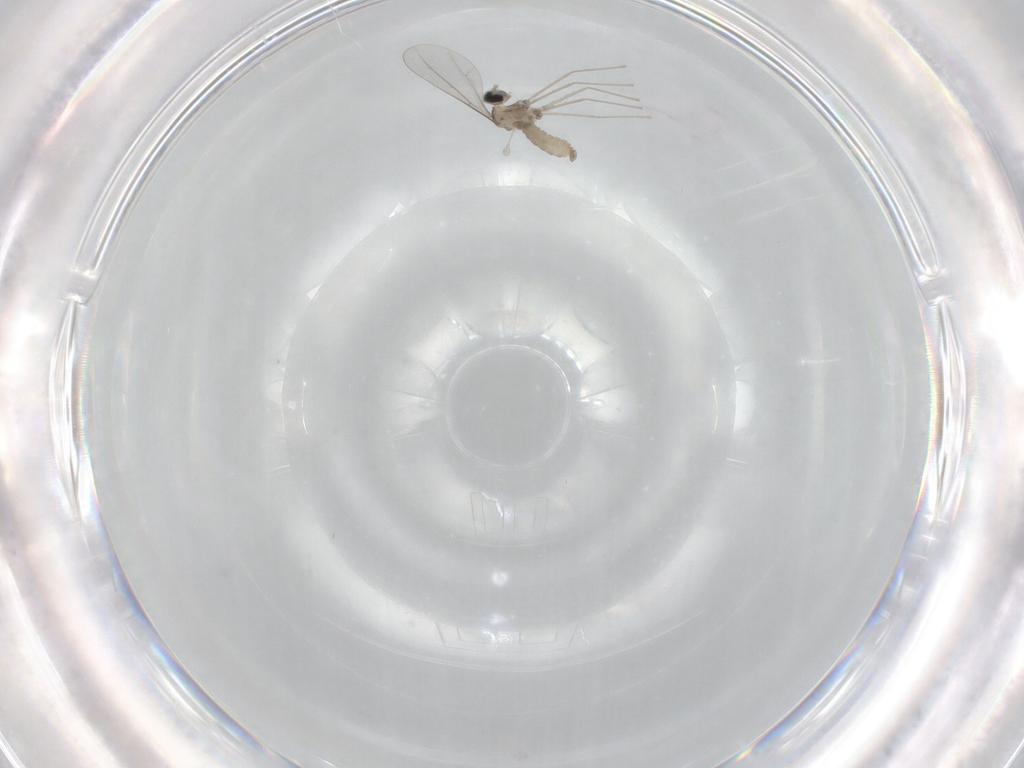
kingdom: Animalia
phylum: Arthropoda
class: Insecta
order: Diptera
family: Cecidomyiidae
